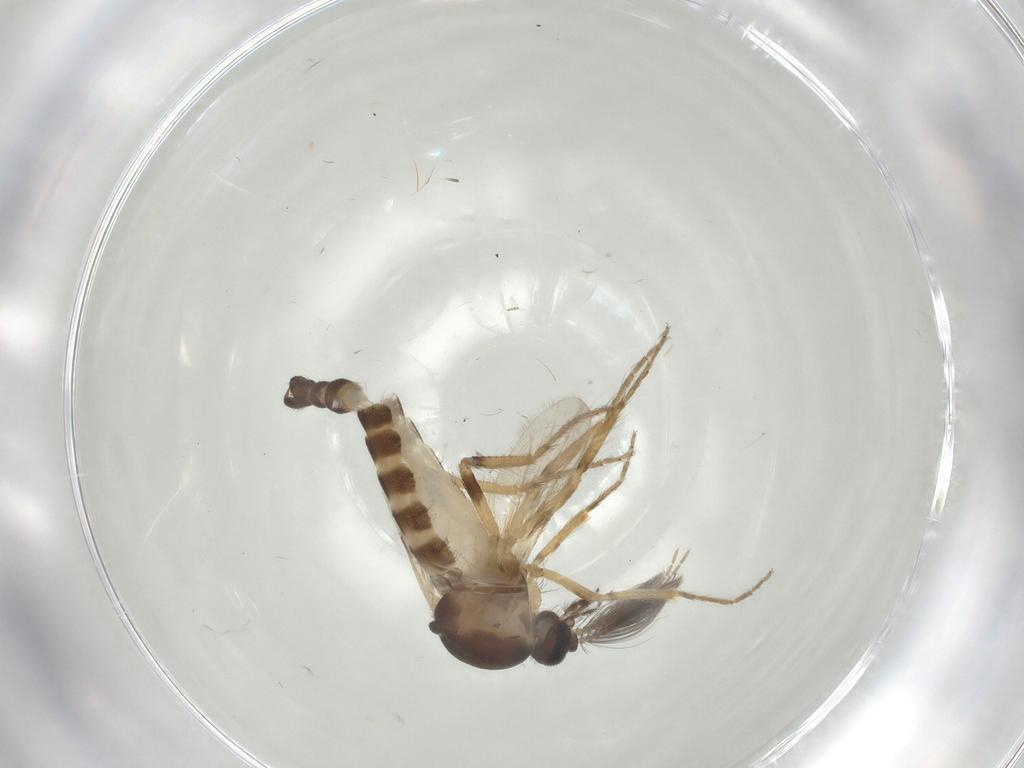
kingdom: Animalia
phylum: Arthropoda
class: Insecta
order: Diptera
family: Ceratopogonidae
